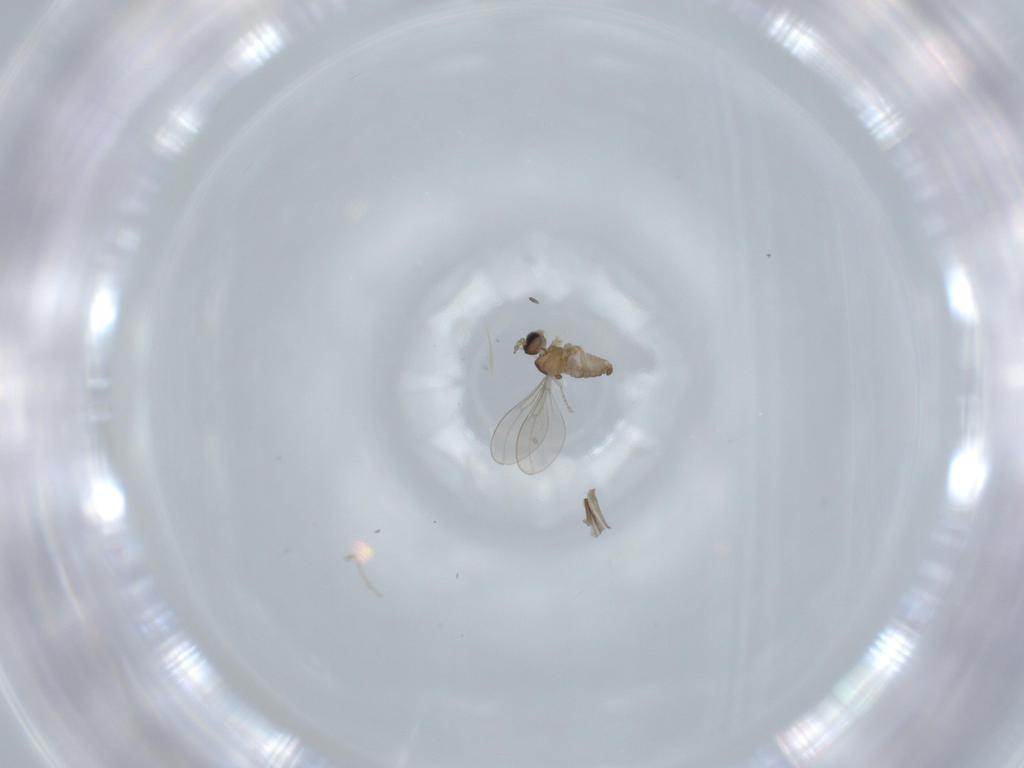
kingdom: Animalia
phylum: Arthropoda
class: Insecta
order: Diptera
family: Cecidomyiidae
